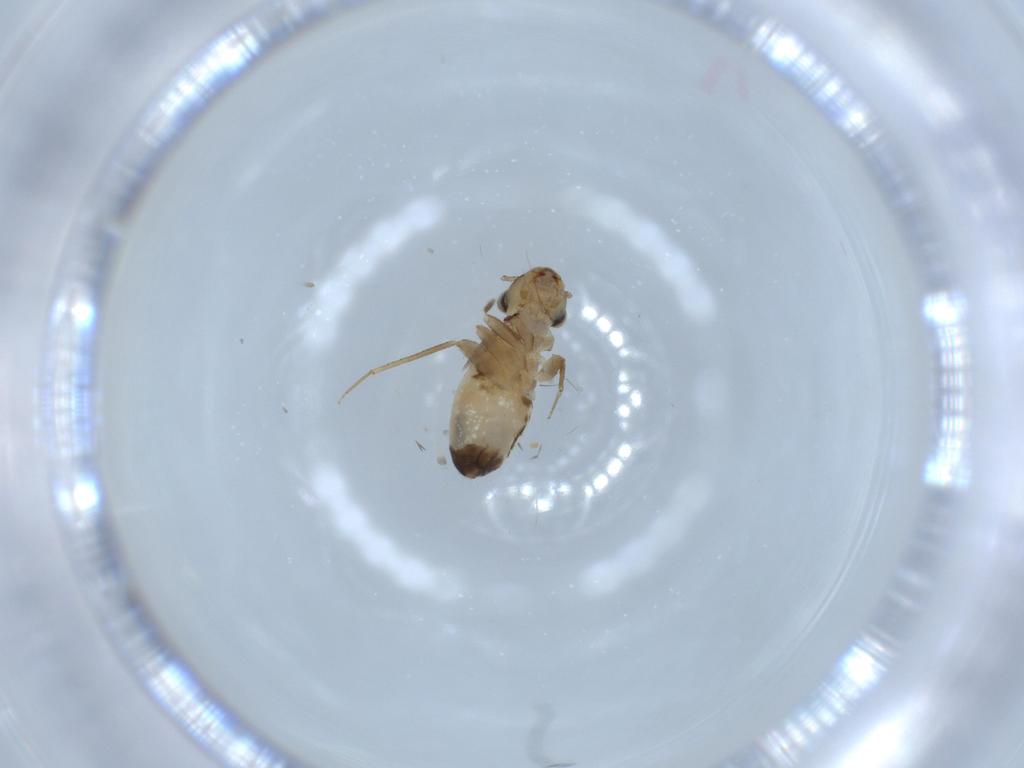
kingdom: Animalia
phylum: Arthropoda
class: Insecta
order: Psocodea
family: Lepidopsocidae
